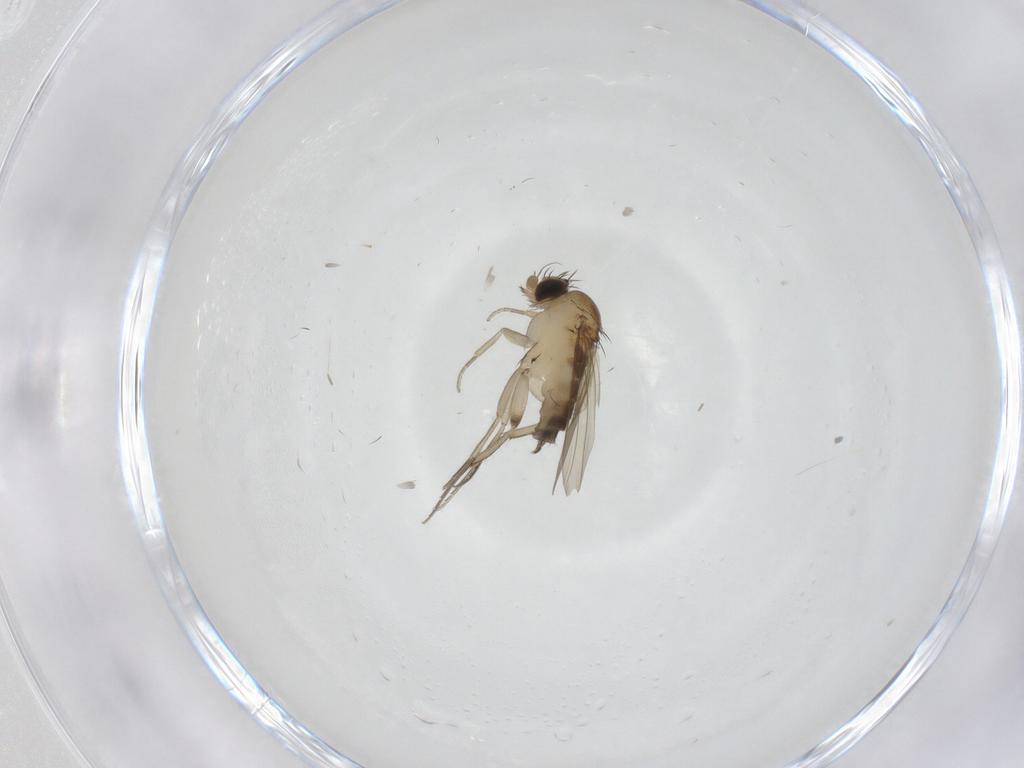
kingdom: Animalia
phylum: Arthropoda
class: Insecta
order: Diptera
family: Phoridae
